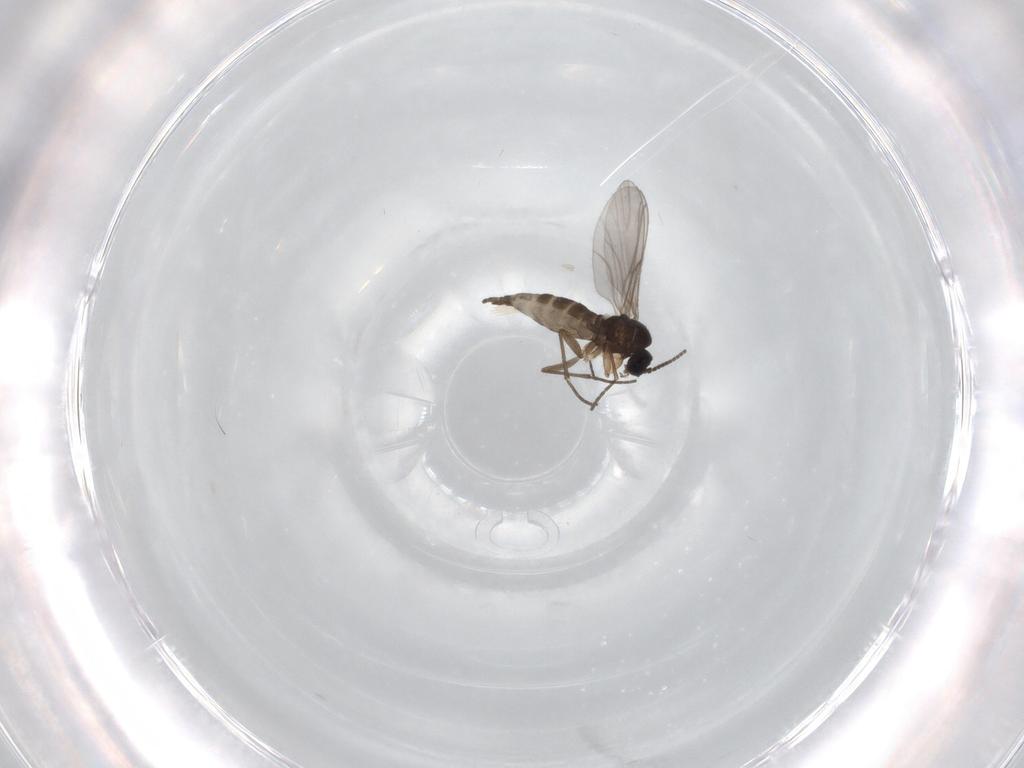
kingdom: Animalia
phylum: Arthropoda
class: Insecta
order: Diptera
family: Sciaridae
